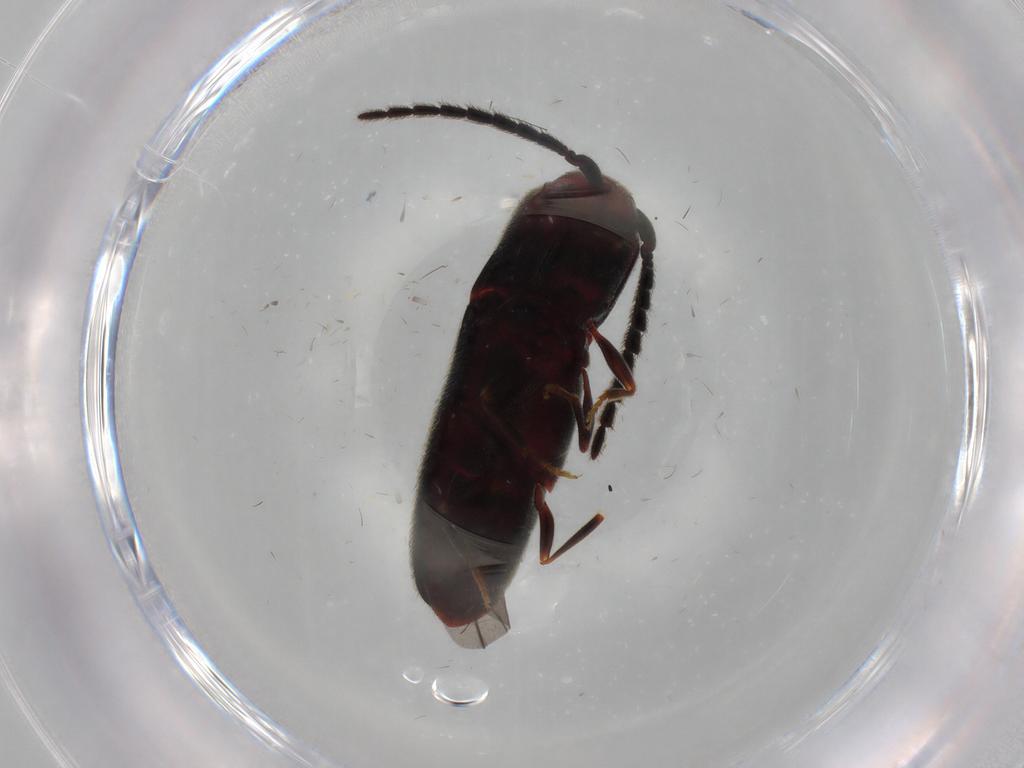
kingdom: Animalia
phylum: Arthropoda
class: Insecta
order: Coleoptera
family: Eucnemidae
